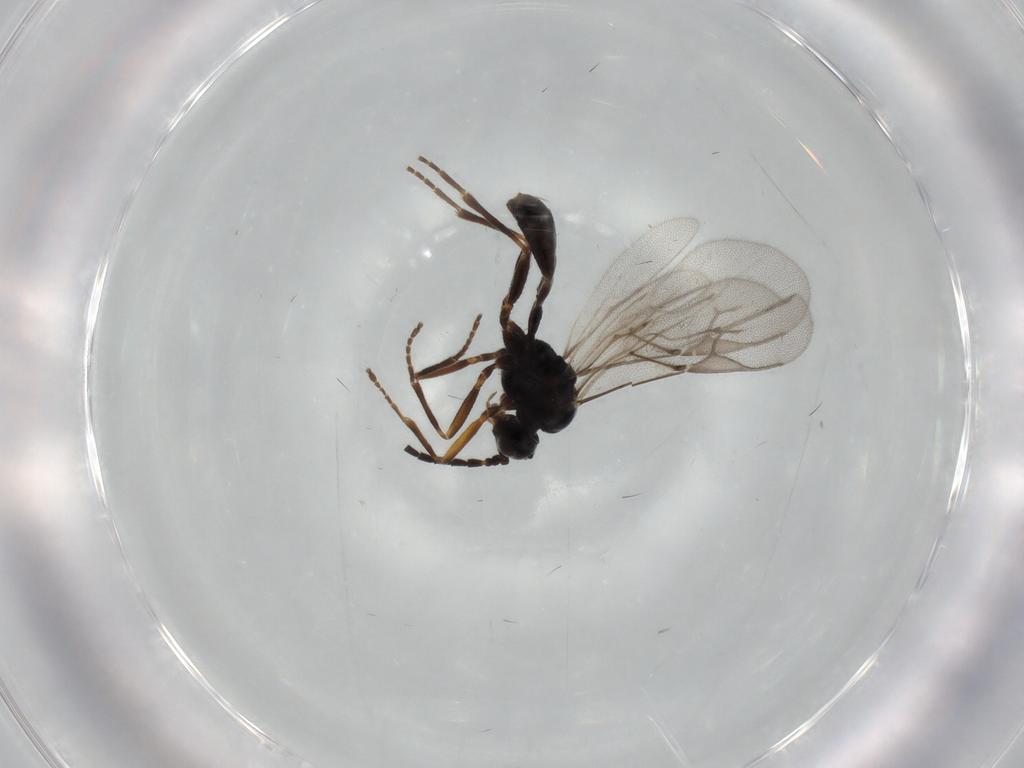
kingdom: Animalia
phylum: Arthropoda
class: Insecta
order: Hymenoptera
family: Braconidae
